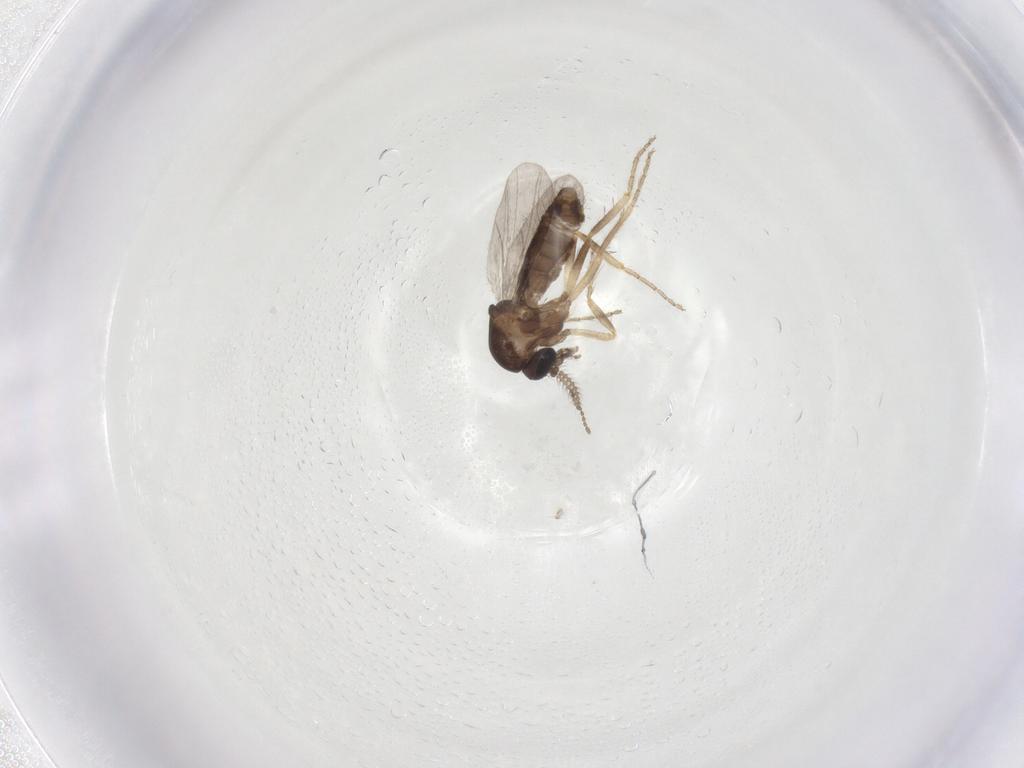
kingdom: Animalia
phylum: Arthropoda
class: Insecta
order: Diptera
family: Ceratopogonidae
